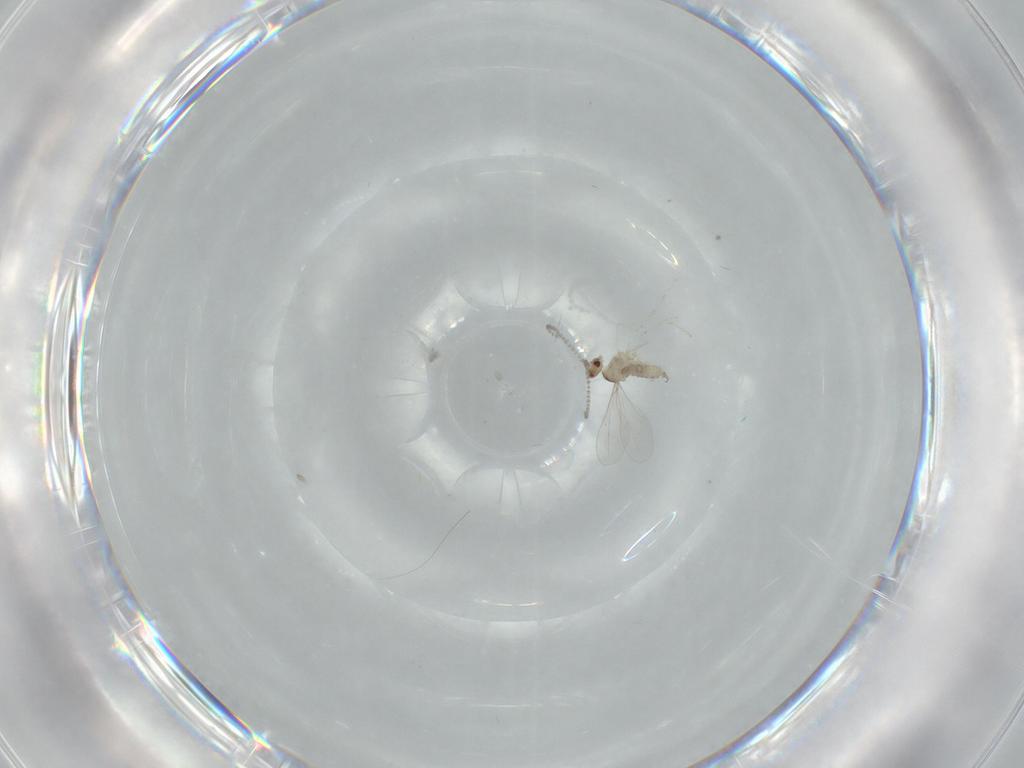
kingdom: Animalia
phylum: Arthropoda
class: Insecta
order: Diptera
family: Cecidomyiidae
